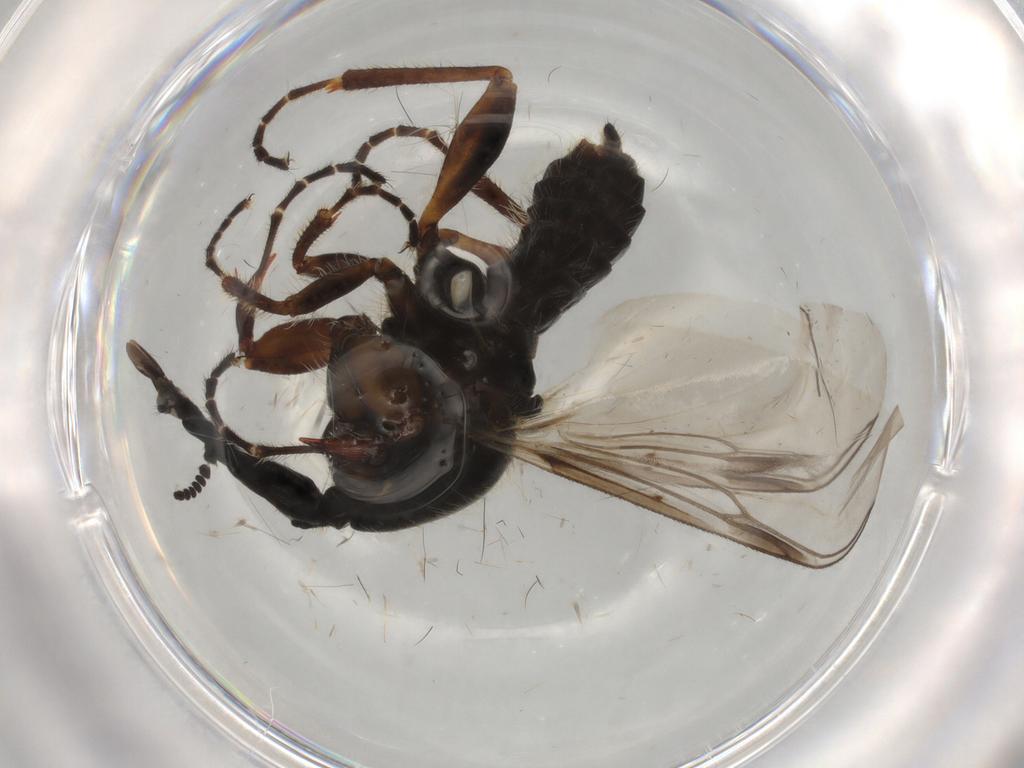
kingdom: Animalia
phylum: Arthropoda
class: Insecta
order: Diptera
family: Bibionidae
